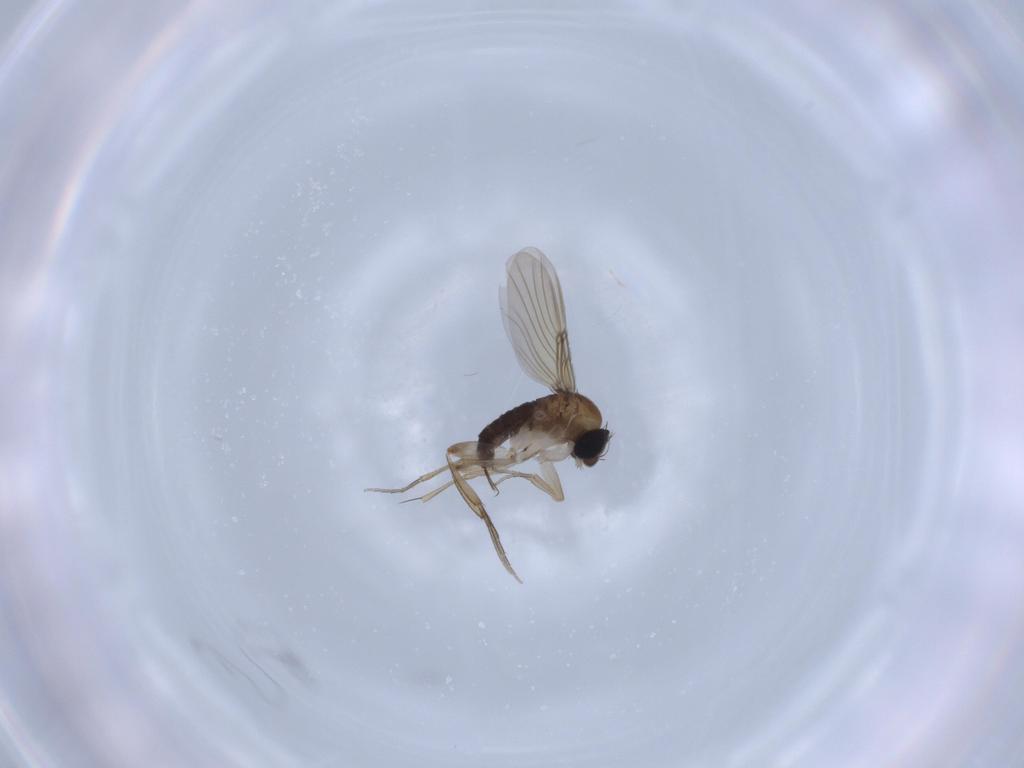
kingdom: Animalia
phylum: Arthropoda
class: Insecta
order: Diptera
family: Phoridae
